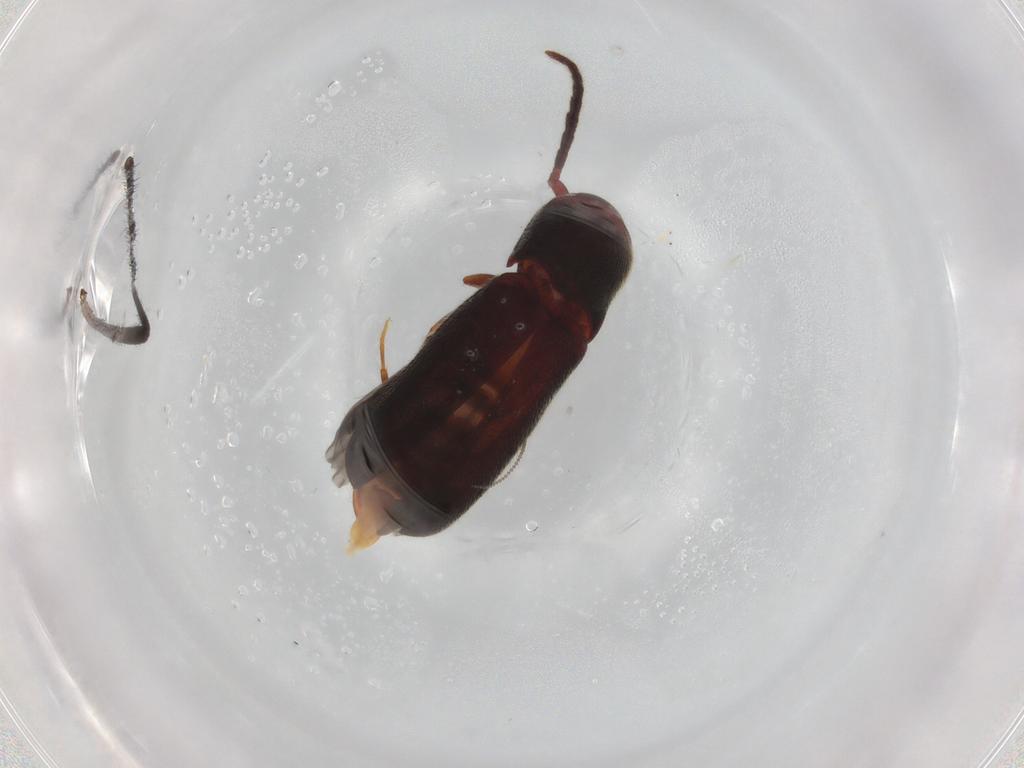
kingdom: Animalia
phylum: Arthropoda
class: Insecta
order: Coleoptera
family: Eucnemidae
